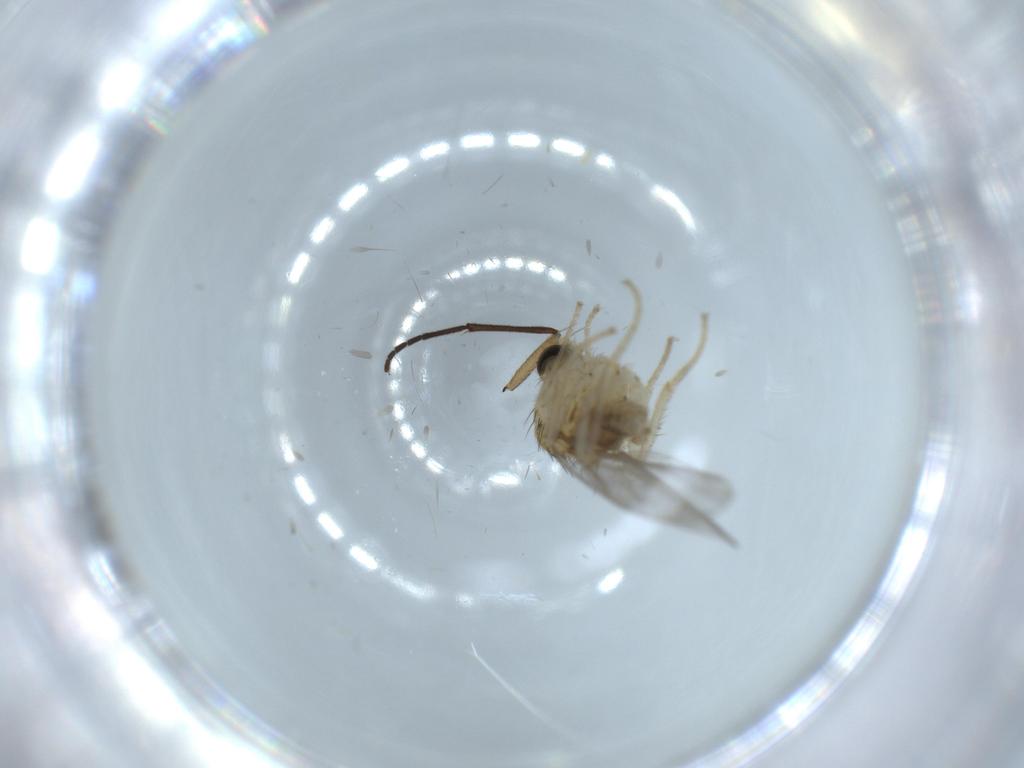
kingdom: Animalia
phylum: Arthropoda
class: Insecta
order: Diptera
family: Hybotidae
